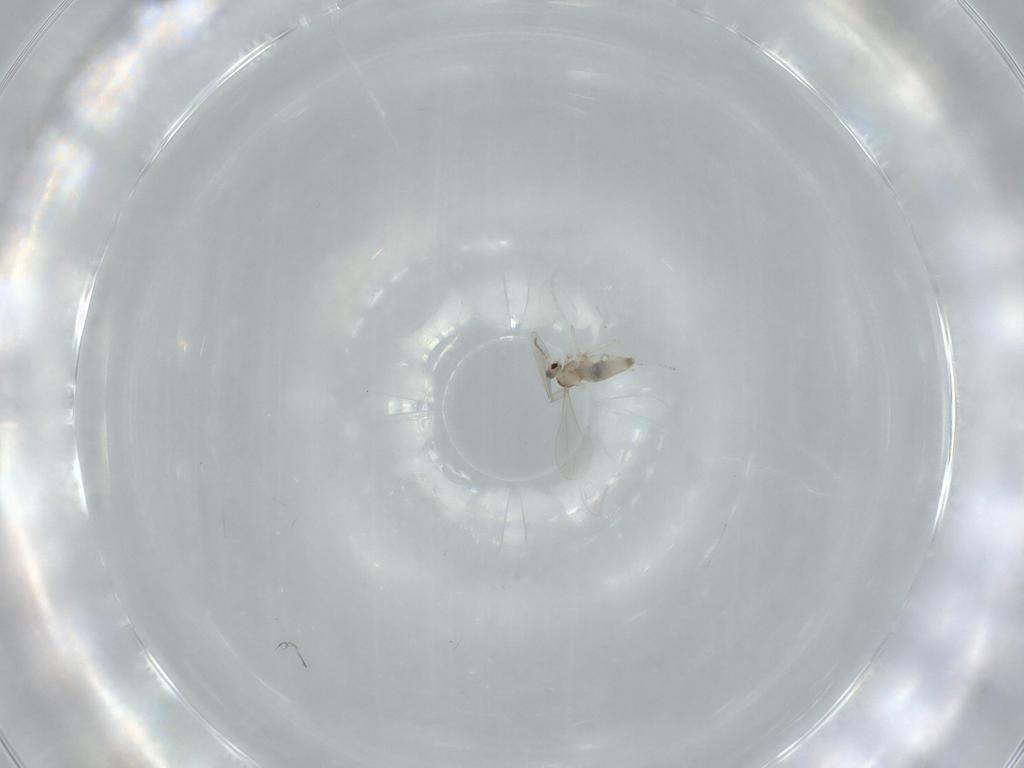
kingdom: Animalia
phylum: Arthropoda
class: Insecta
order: Diptera
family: Cecidomyiidae
